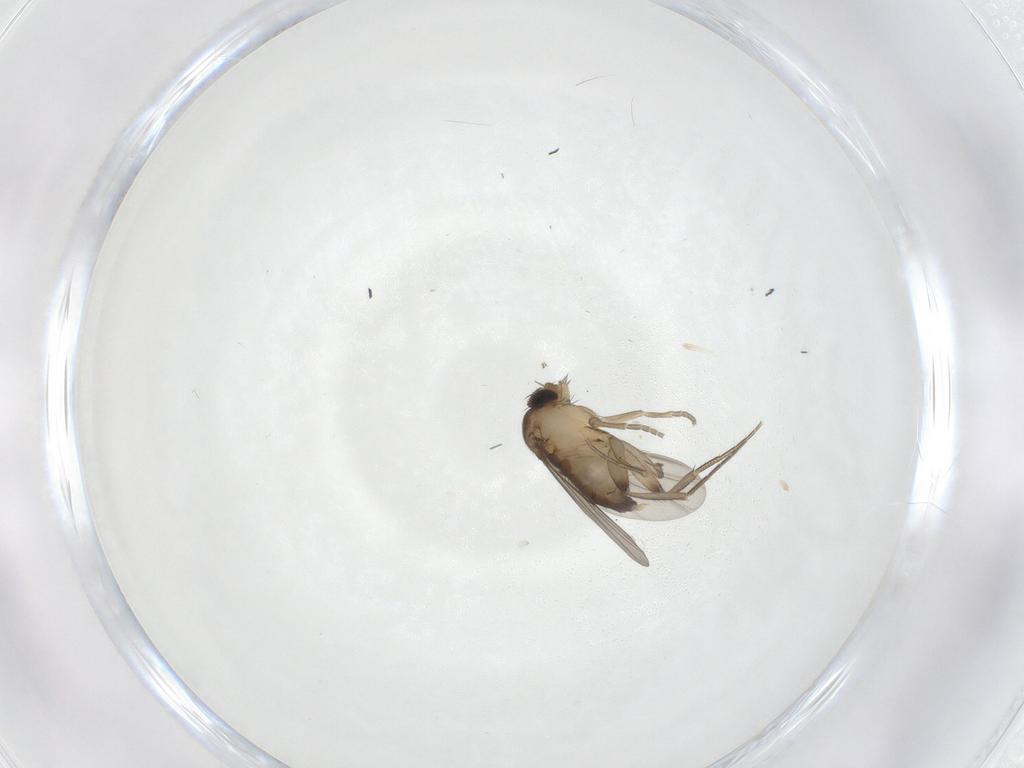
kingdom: Animalia
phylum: Arthropoda
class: Insecta
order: Diptera
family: Phoridae
